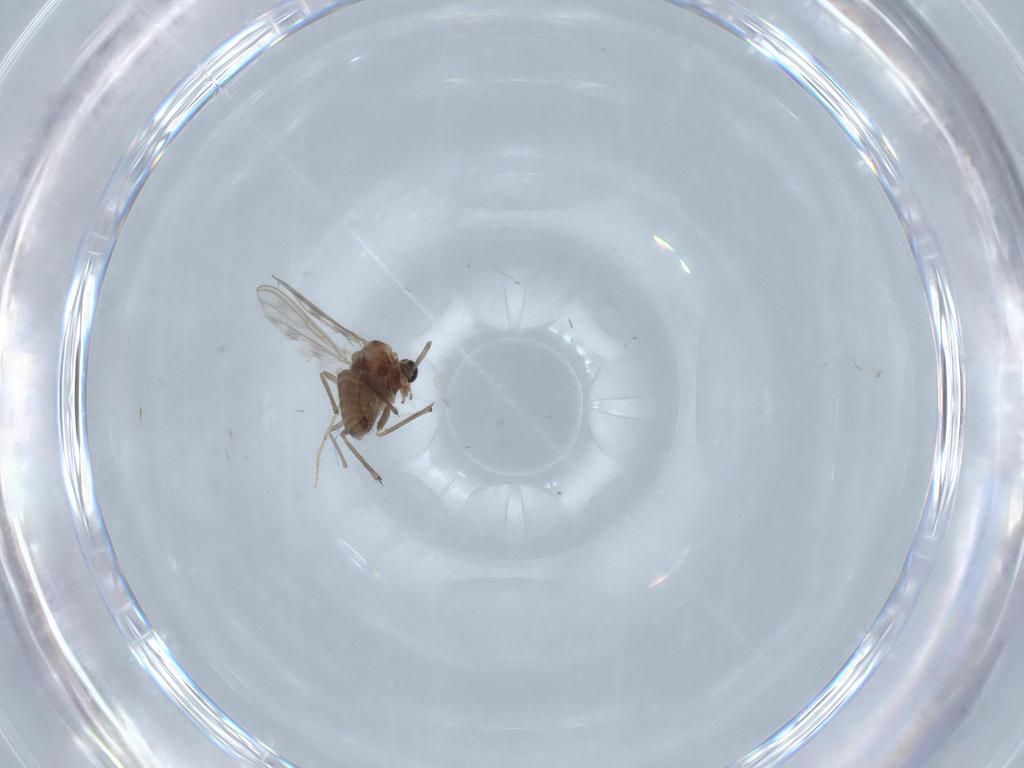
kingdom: Animalia
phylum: Arthropoda
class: Insecta
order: Diptera
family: Chironomidae
